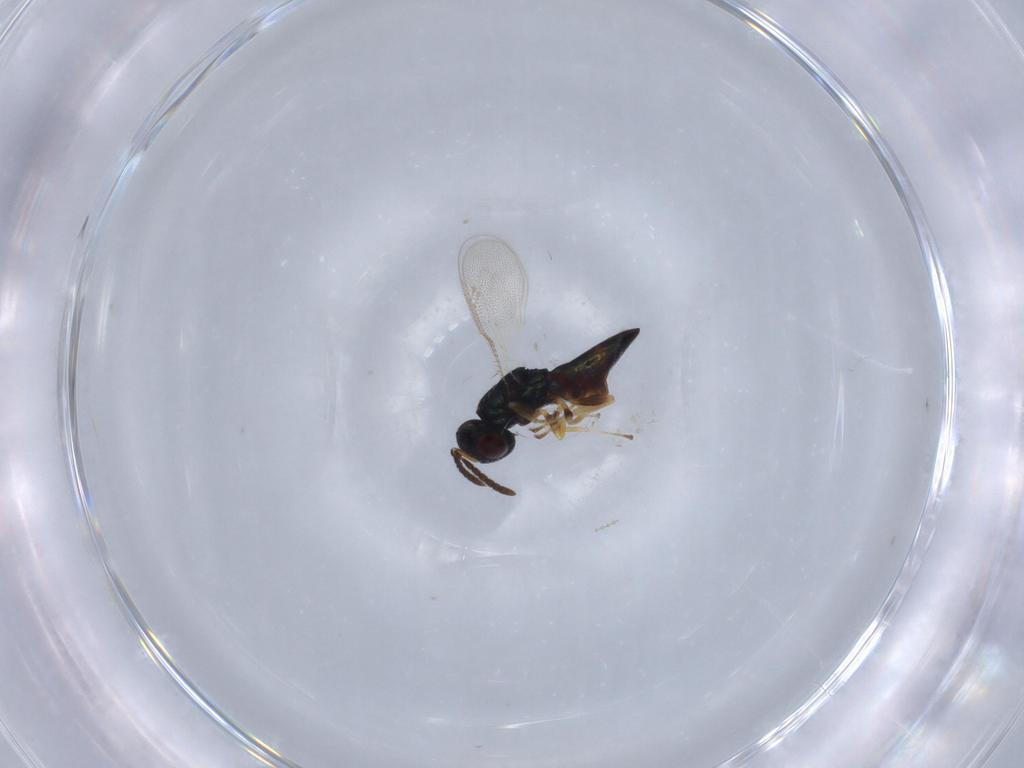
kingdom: Animalia
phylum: Arthropoda
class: Insecta
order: Hymenoptera
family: Pteromalidae
